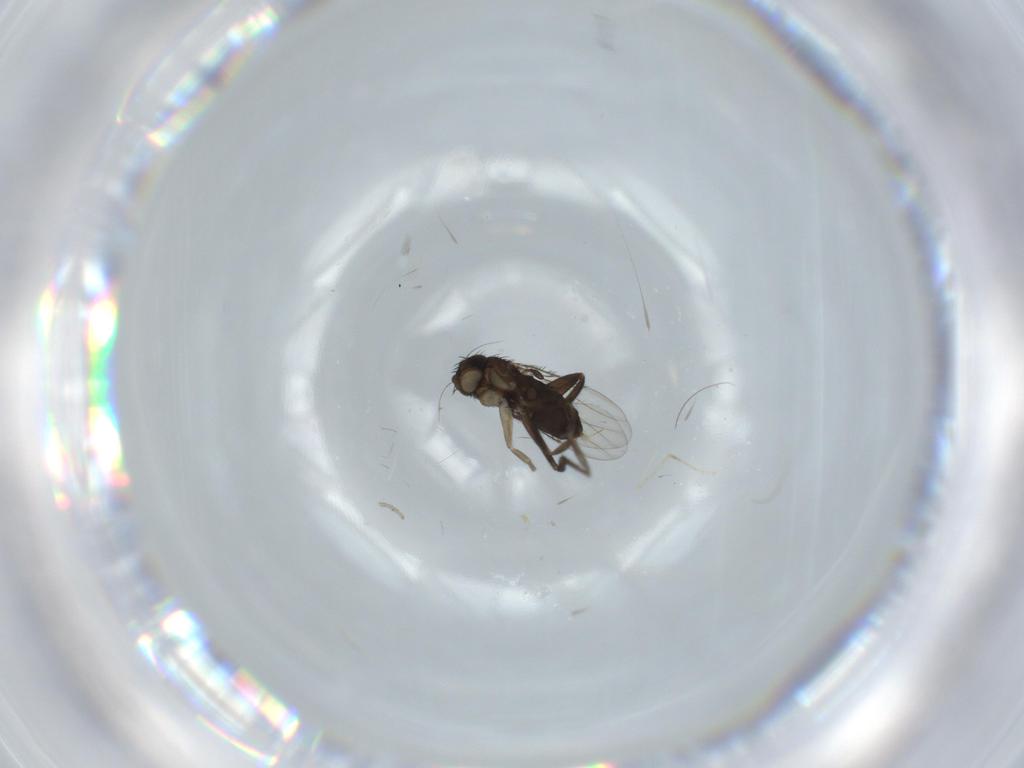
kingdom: Animalia
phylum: Arthropoda
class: Insecta
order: Diptera
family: Phoridae
